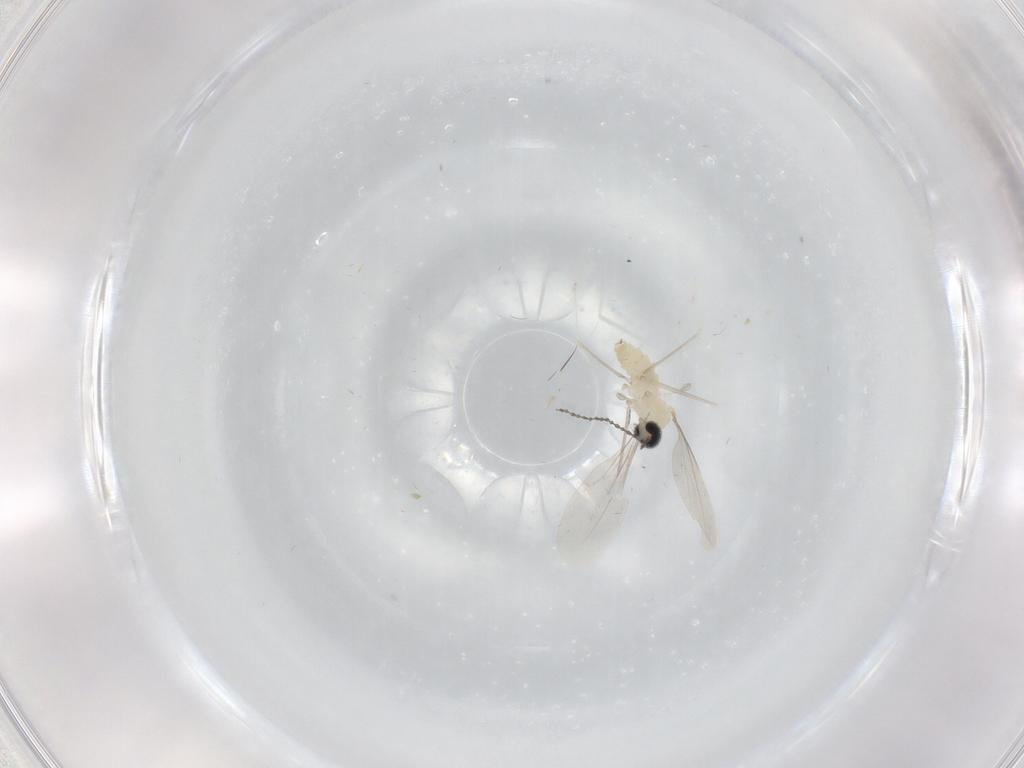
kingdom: Animalia
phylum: Arthropoda
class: Insecta
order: Diptera
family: Cecidomyiidae
